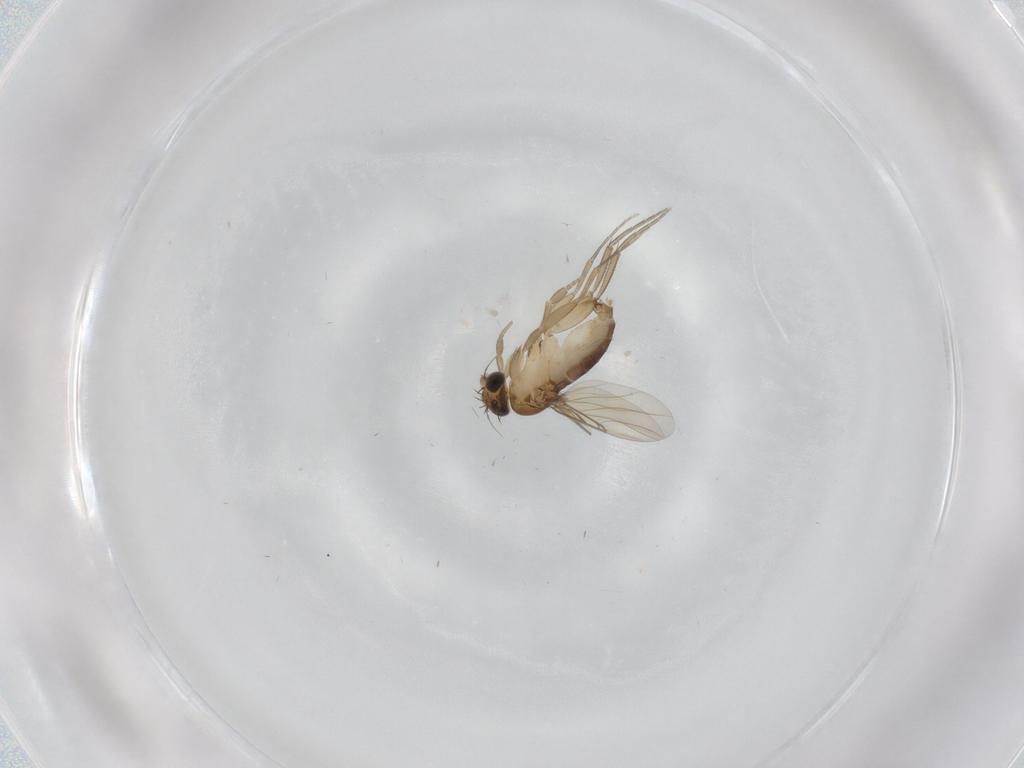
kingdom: Animalia
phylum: Arthropoda
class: Insecta
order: Diptera
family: Phoridae
